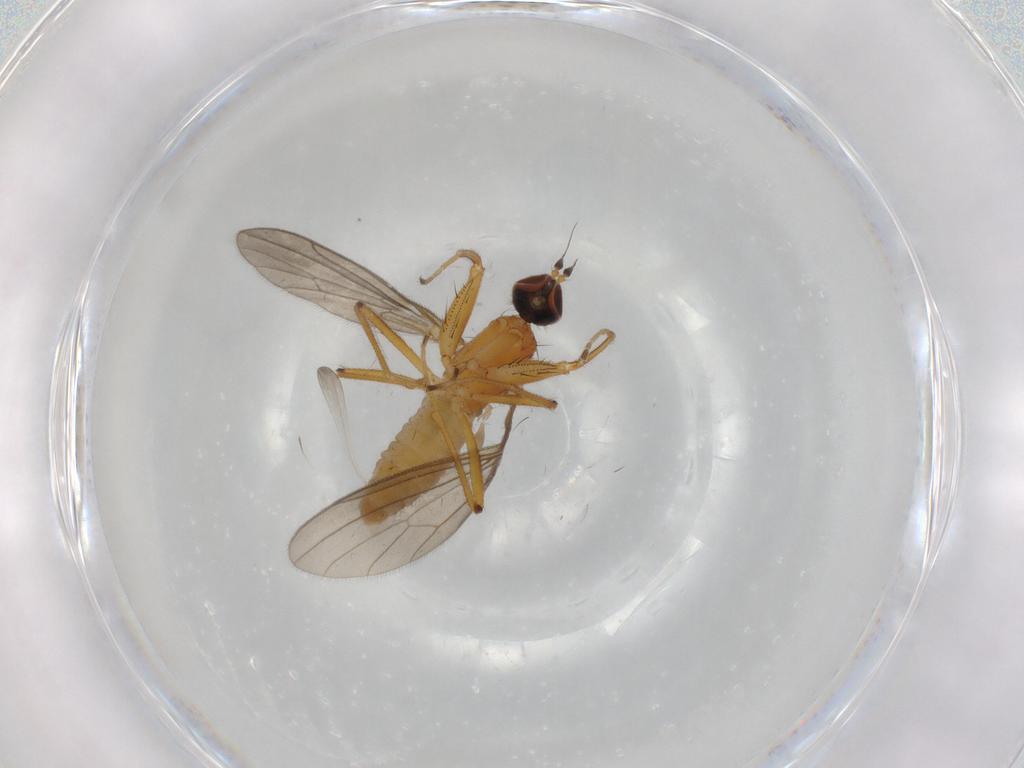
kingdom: Animalia
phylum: Arthropoda
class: Insecta
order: Diptera
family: Empididae
